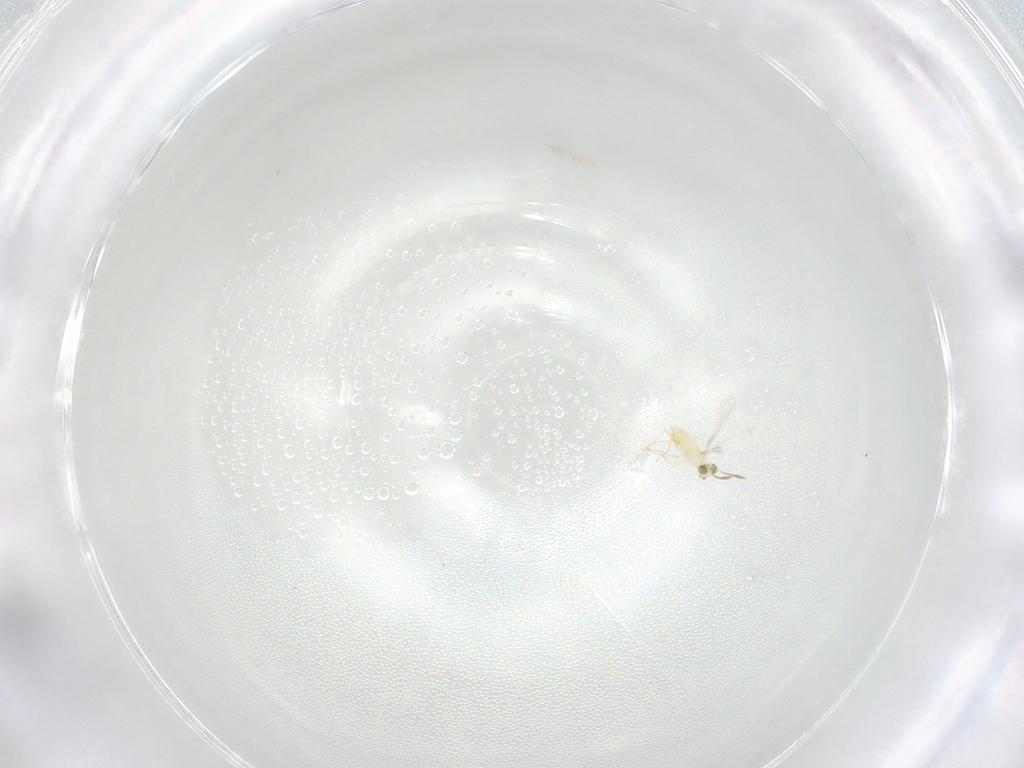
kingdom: Animalia
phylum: Arthropoda
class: Insecta
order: Hymenoptera
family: Mymaridae
